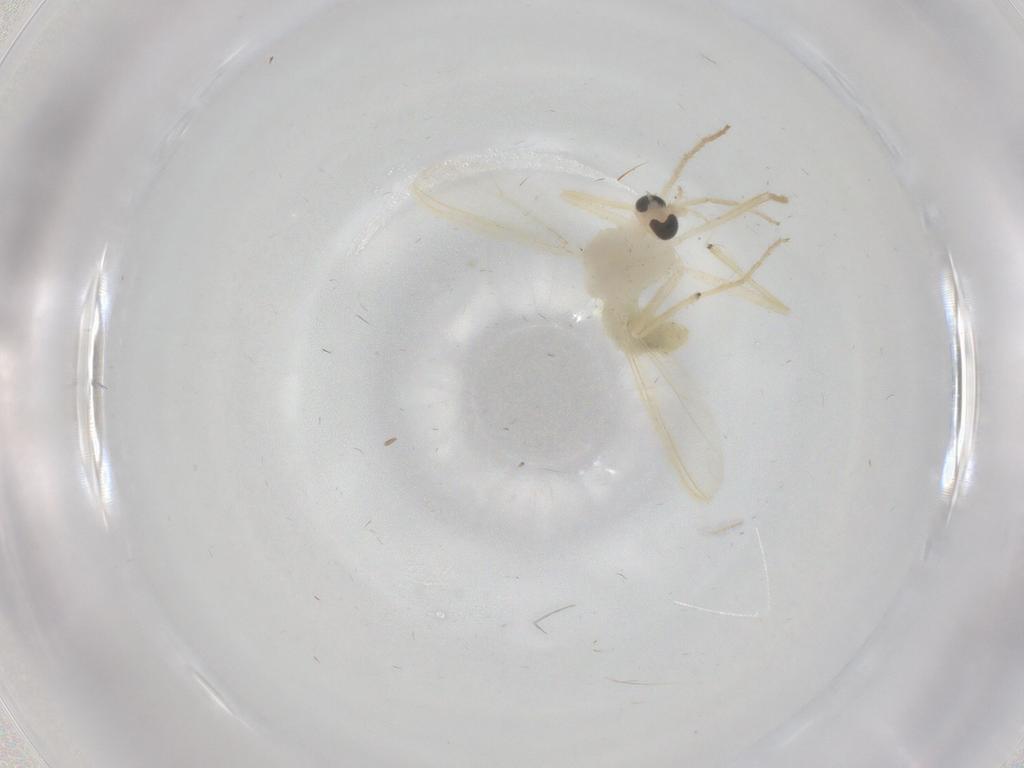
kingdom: Animalia
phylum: Arthropoda
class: Insecta
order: Diptera
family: Chironomidae
